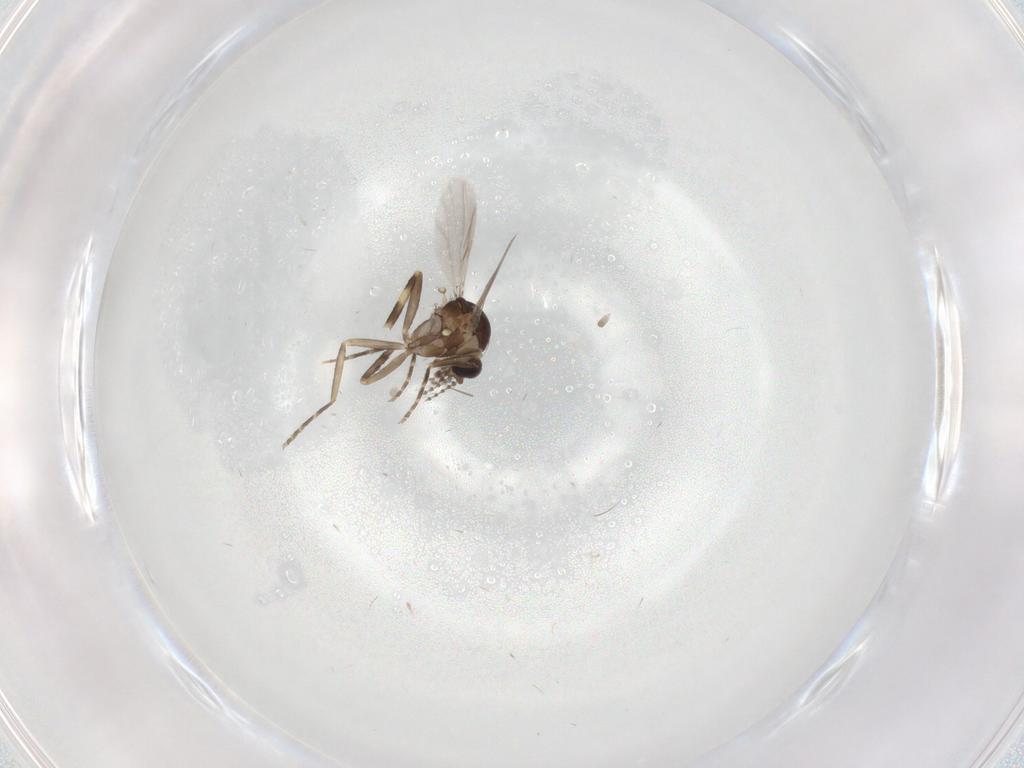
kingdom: Animalia
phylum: Arthropoda
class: Insecta
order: Diptera
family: Ceratopogonidae
